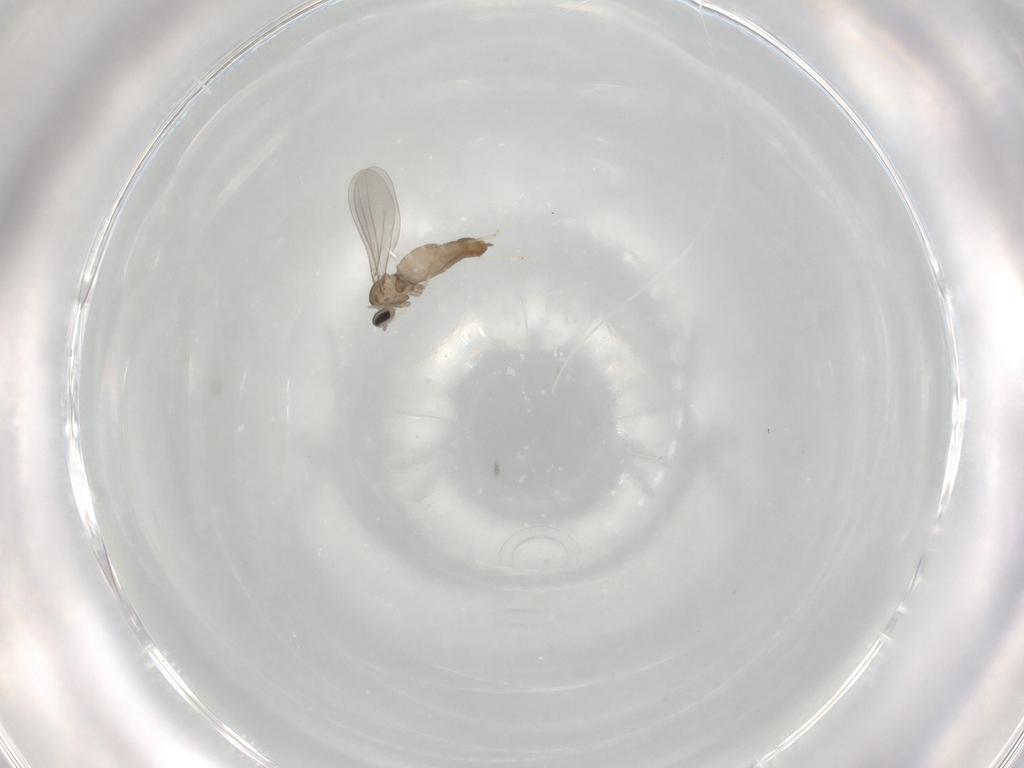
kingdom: Animalia
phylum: Arthropoda
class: Insecta
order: Diptera
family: Cecidomyiidae
